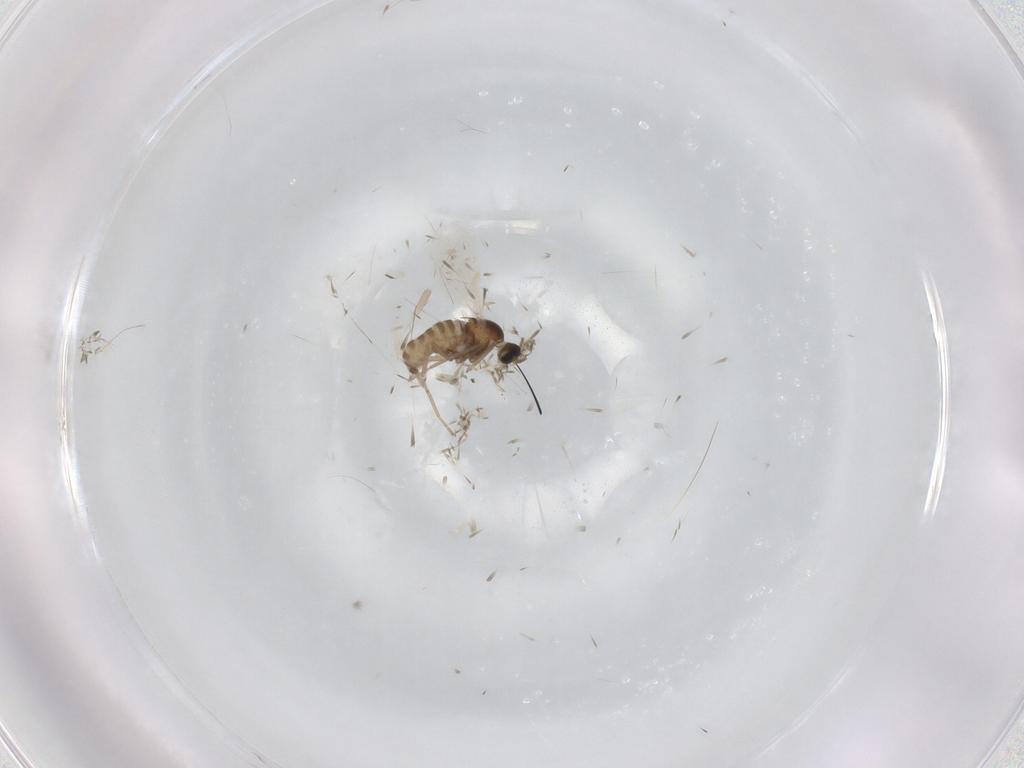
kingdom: Animalia
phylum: Arthropoda
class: Insecta
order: Diptera
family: Cecidomyiidae
